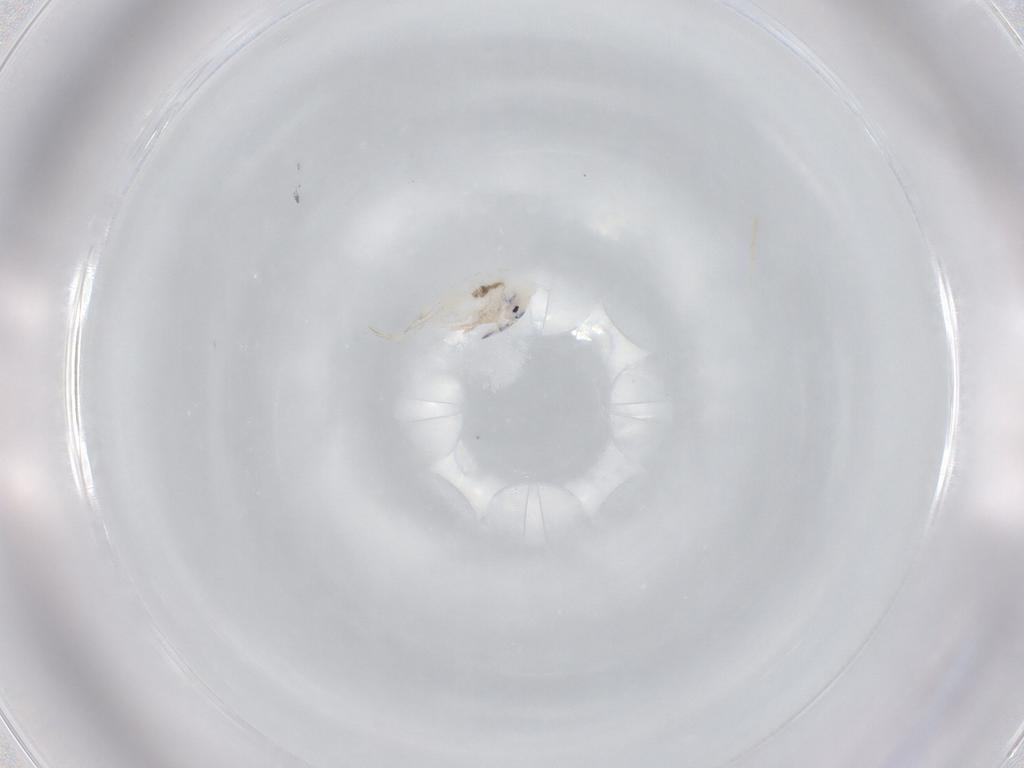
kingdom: Animalia
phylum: Arthropoda
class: Collembola
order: Entomobryomorpha
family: Entomobryidae
